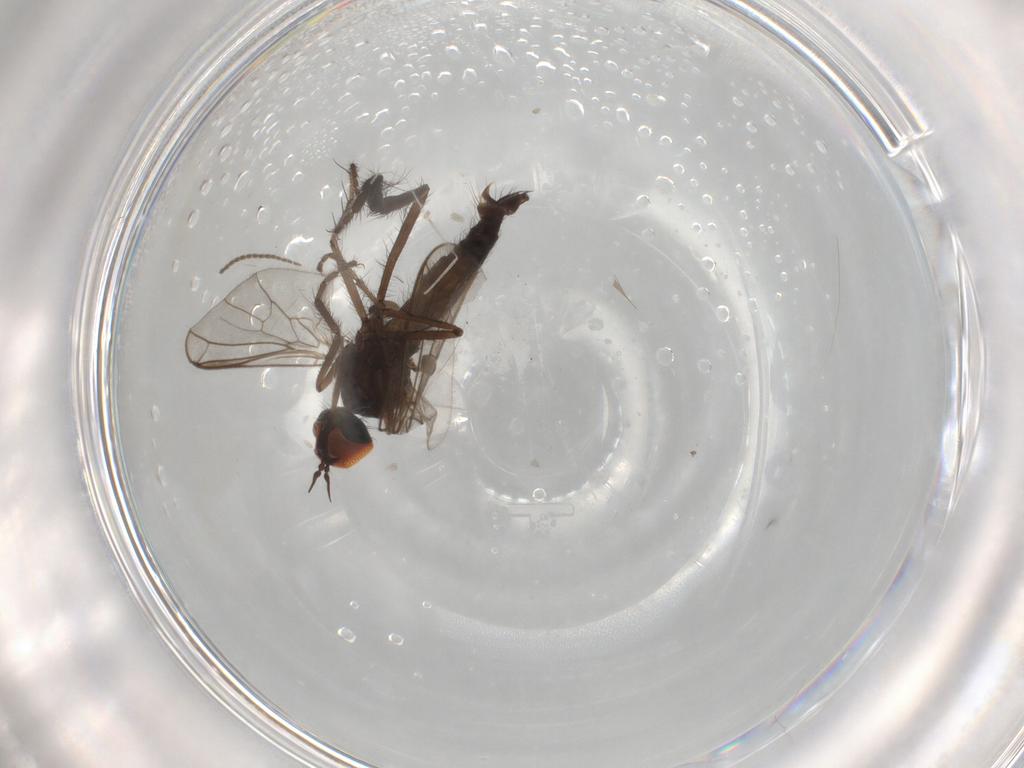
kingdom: Animalia
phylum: Arthropoda
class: Insecta
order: Diptera
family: Empididae
